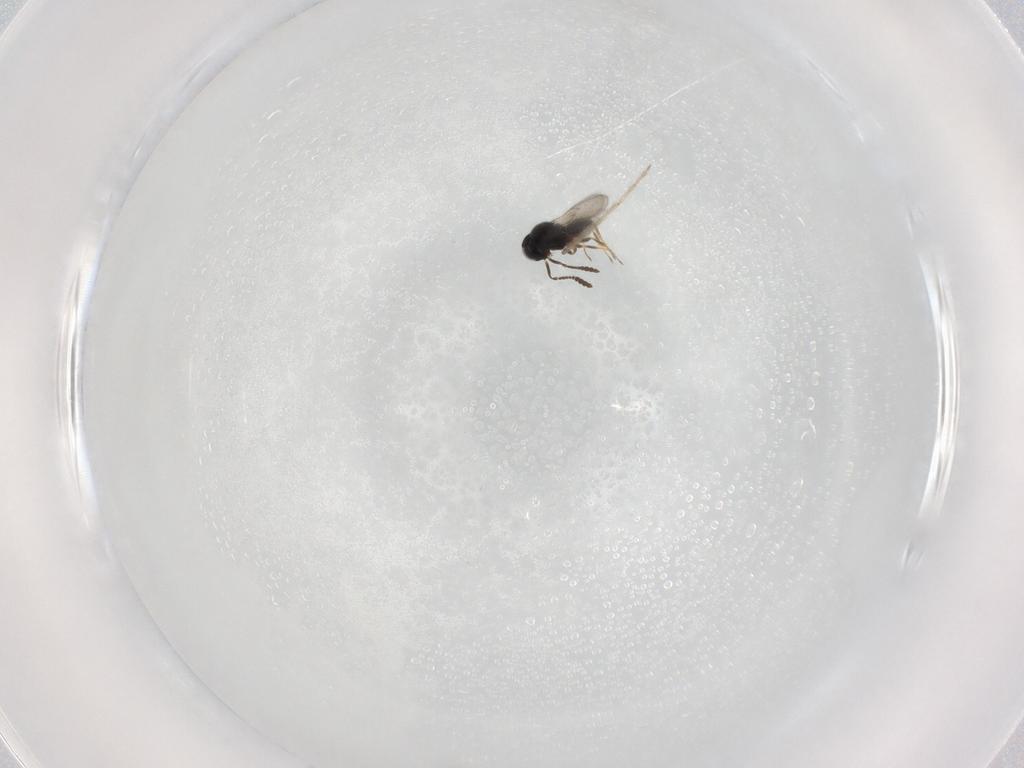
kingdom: Animalia
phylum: Arthropoda
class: Insecta
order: Hymenoptera
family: Scelionidae
